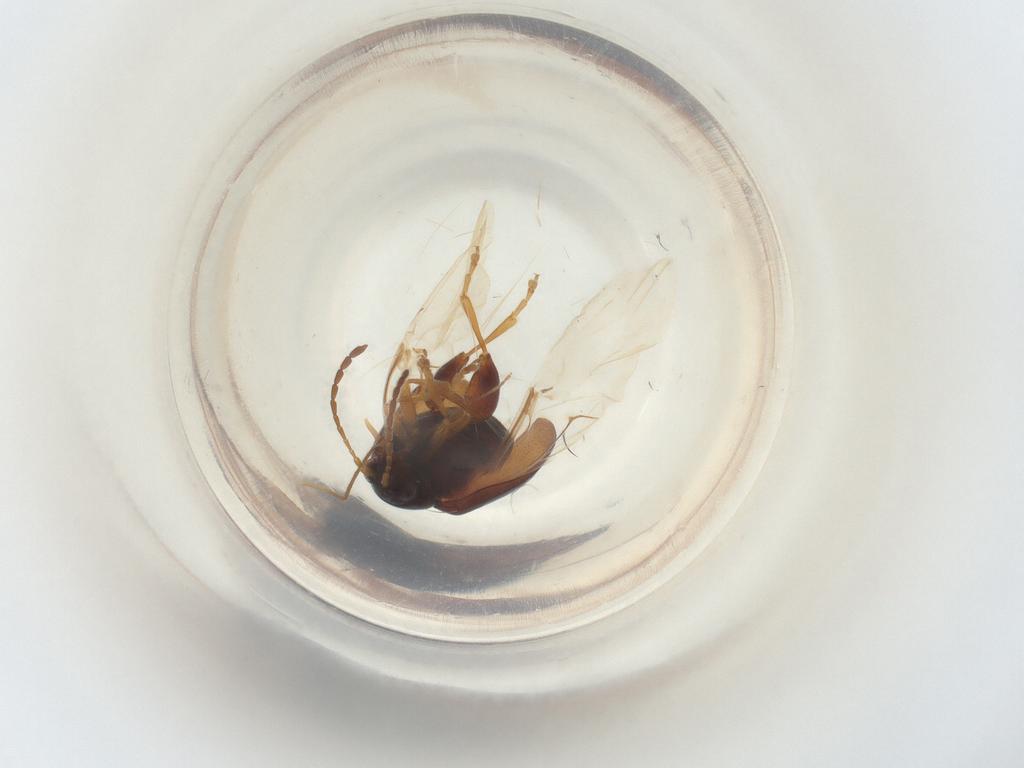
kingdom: Animalia
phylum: Arthropoda
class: Insecta
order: Coleoptera
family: Chrysomelidae
